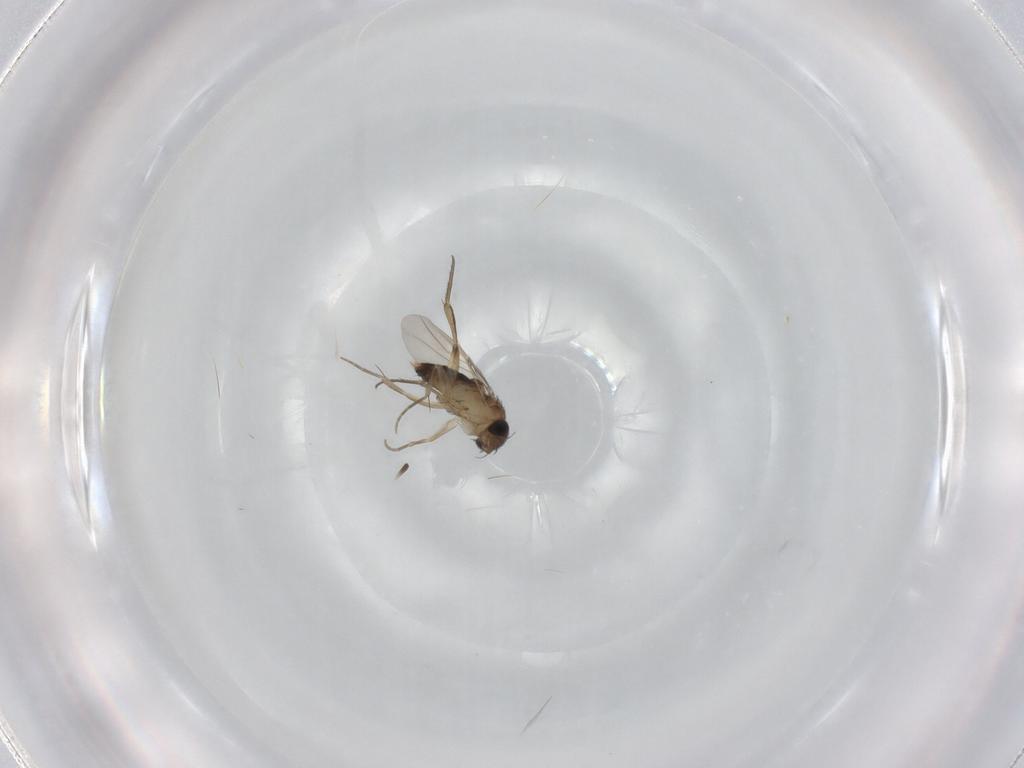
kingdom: Animalia
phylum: Arthropoda
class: Insecta
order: Diptera
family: Phoridae
